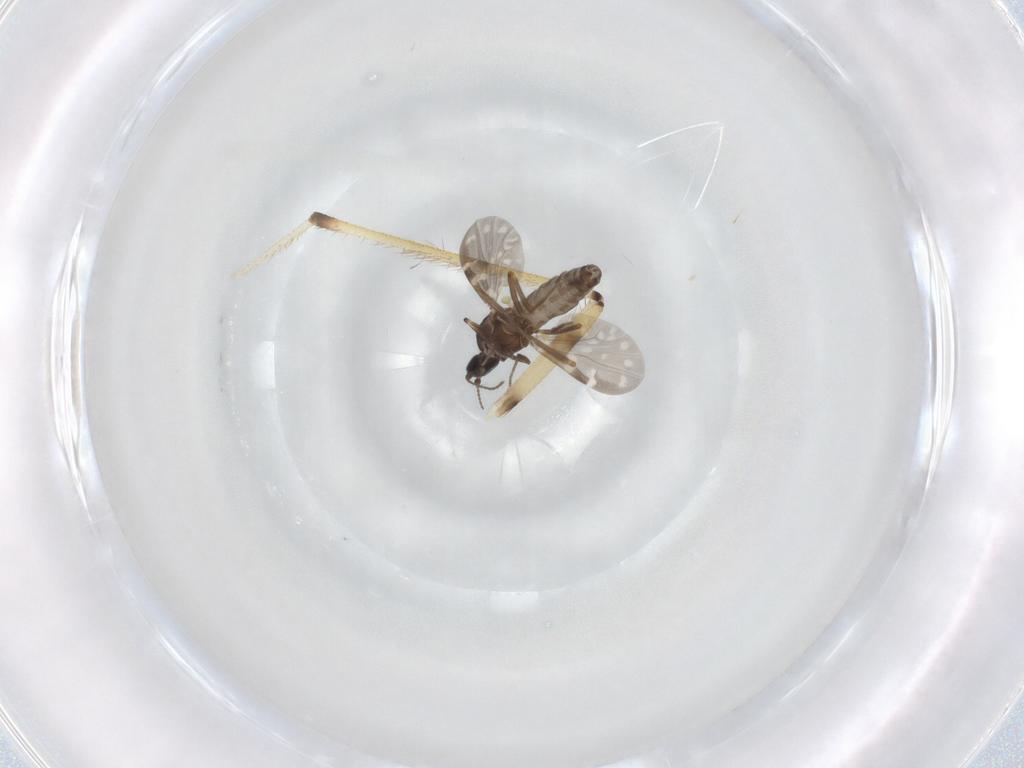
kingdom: Animalia
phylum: Arthropoda
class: Insecta
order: Diptera
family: Limoniidae
